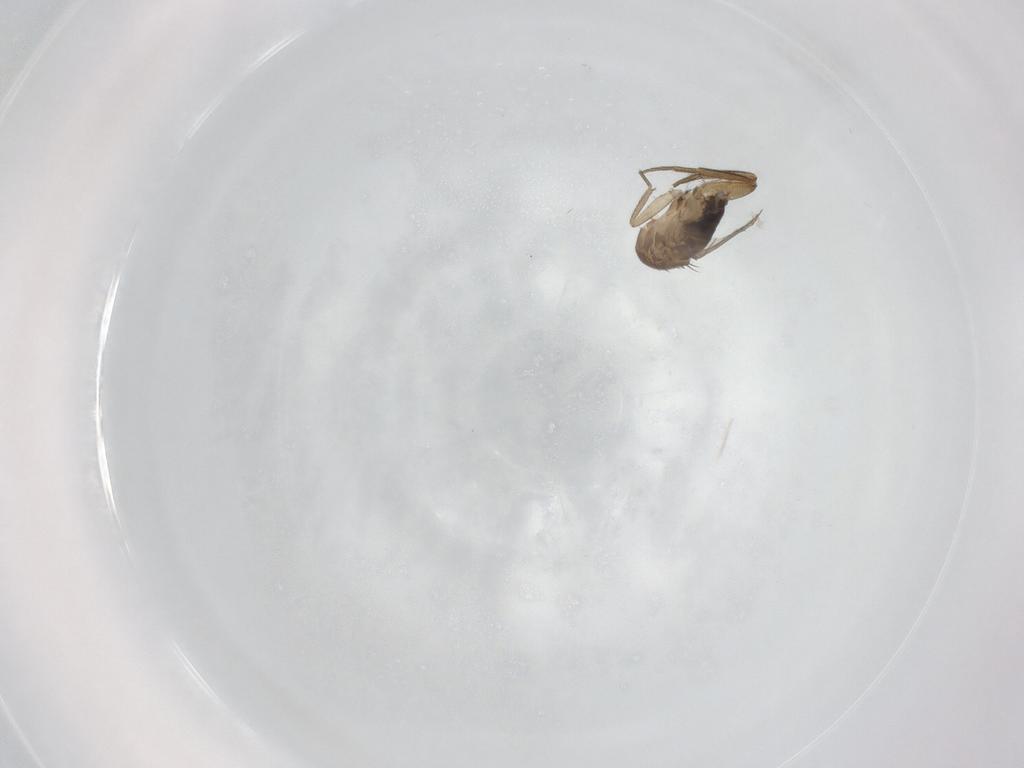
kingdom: Animalia
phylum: Arthropoda
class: Insecta
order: Diptera
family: Phoridae
